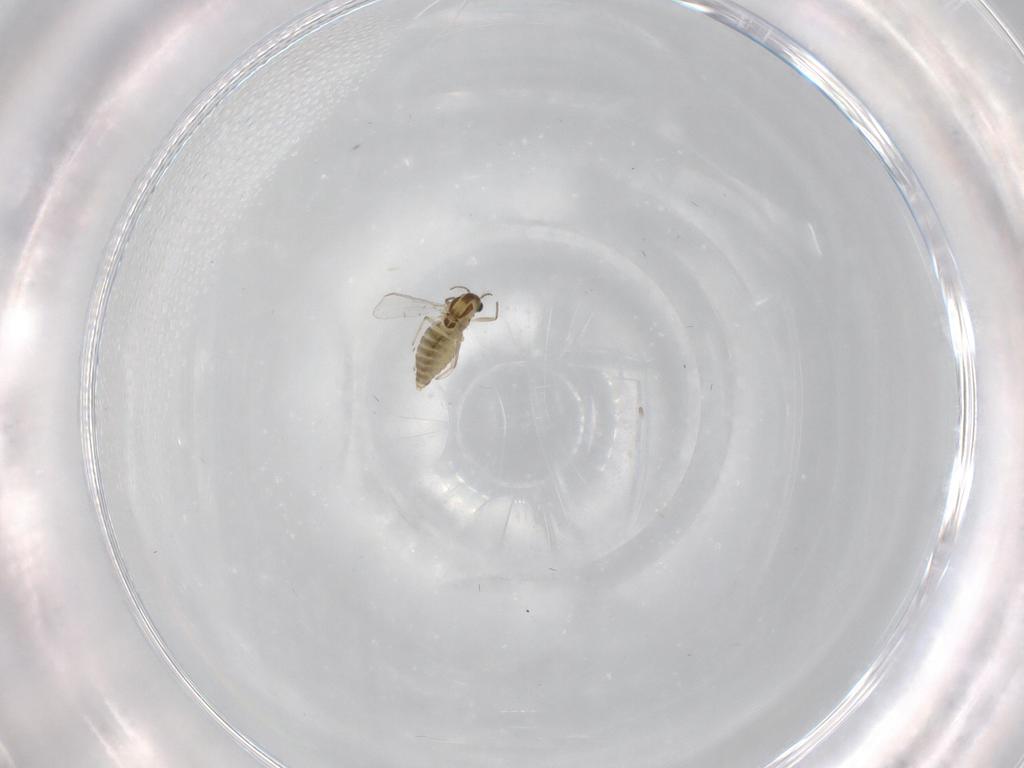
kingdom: Animalia
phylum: Arthropoda
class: Insecta
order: Diptera
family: Chironomidae
